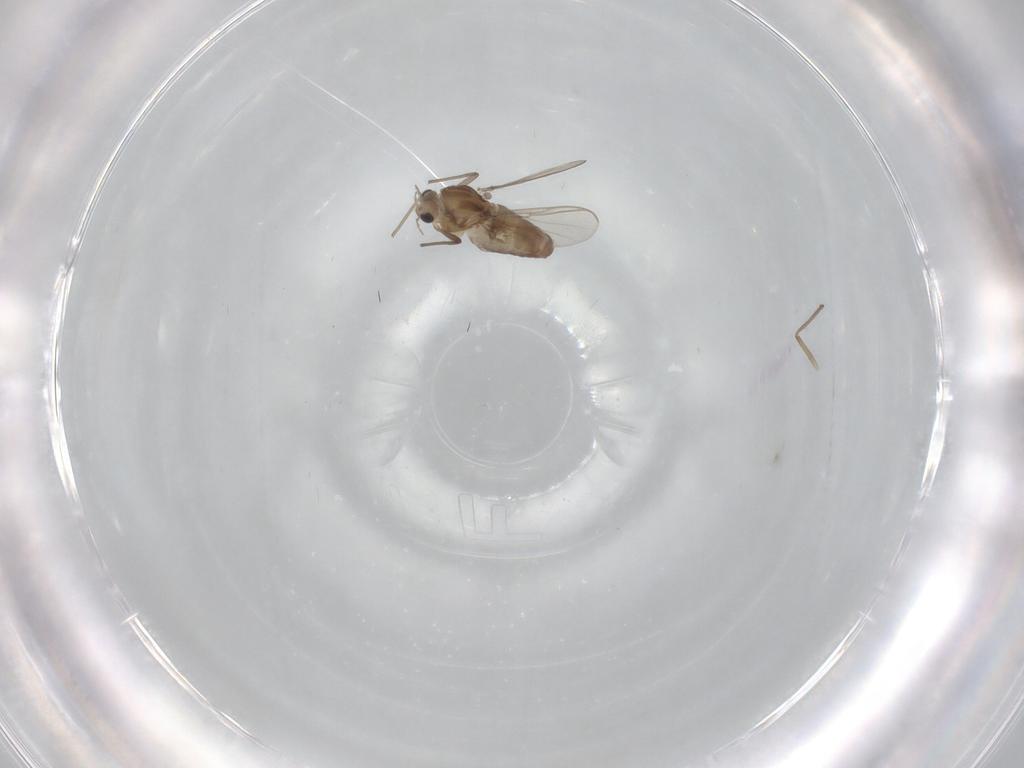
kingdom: Animalia
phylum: Arthropoda
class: Insecta
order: Diptera
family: Chironomidae
